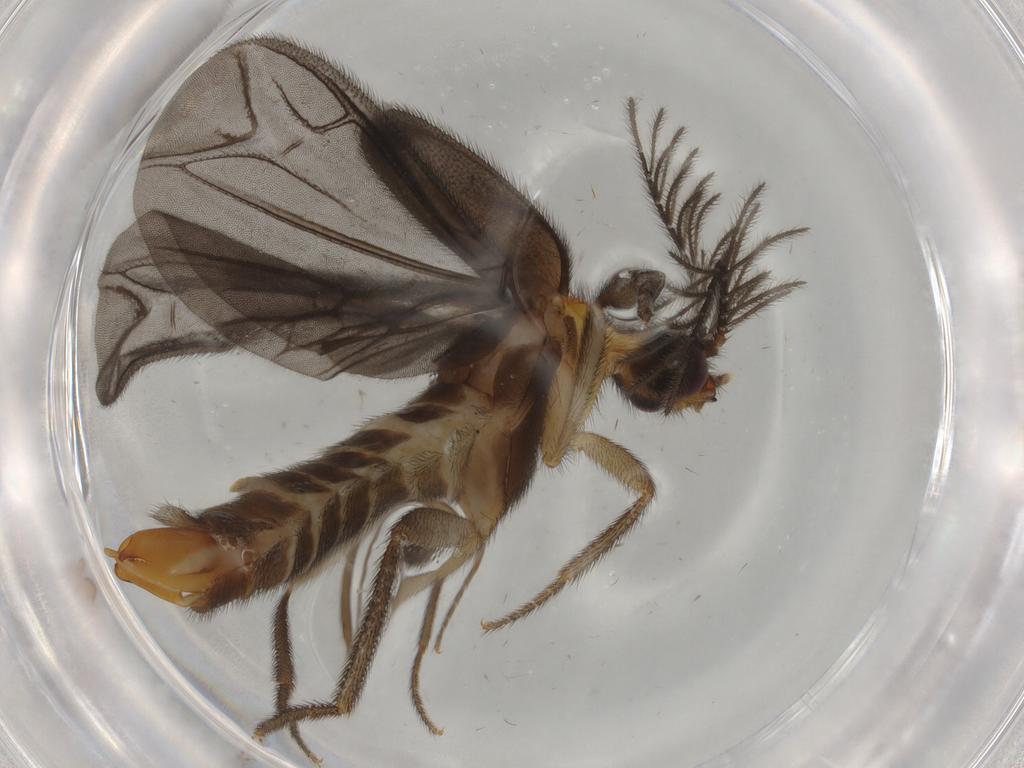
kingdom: Animalia
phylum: Arthropoda
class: Insecta
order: Coleoptera
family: Phengodidae
